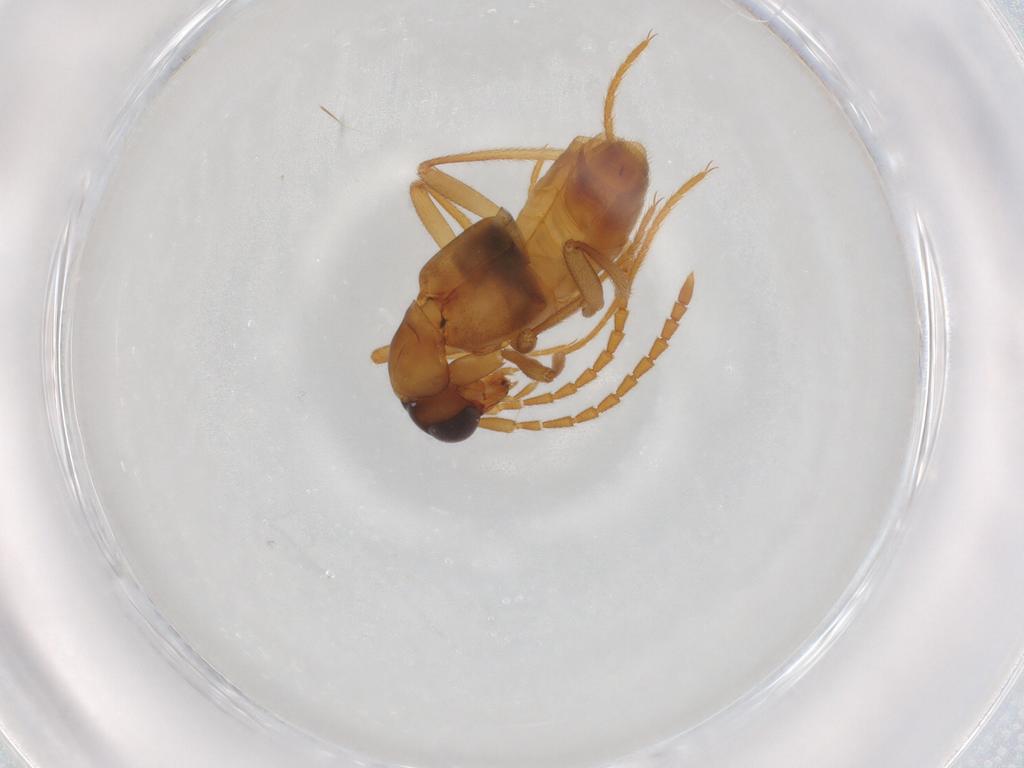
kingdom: Animalia
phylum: Arthropoda
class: Insecta
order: Coleoptera
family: Staphylinidae
